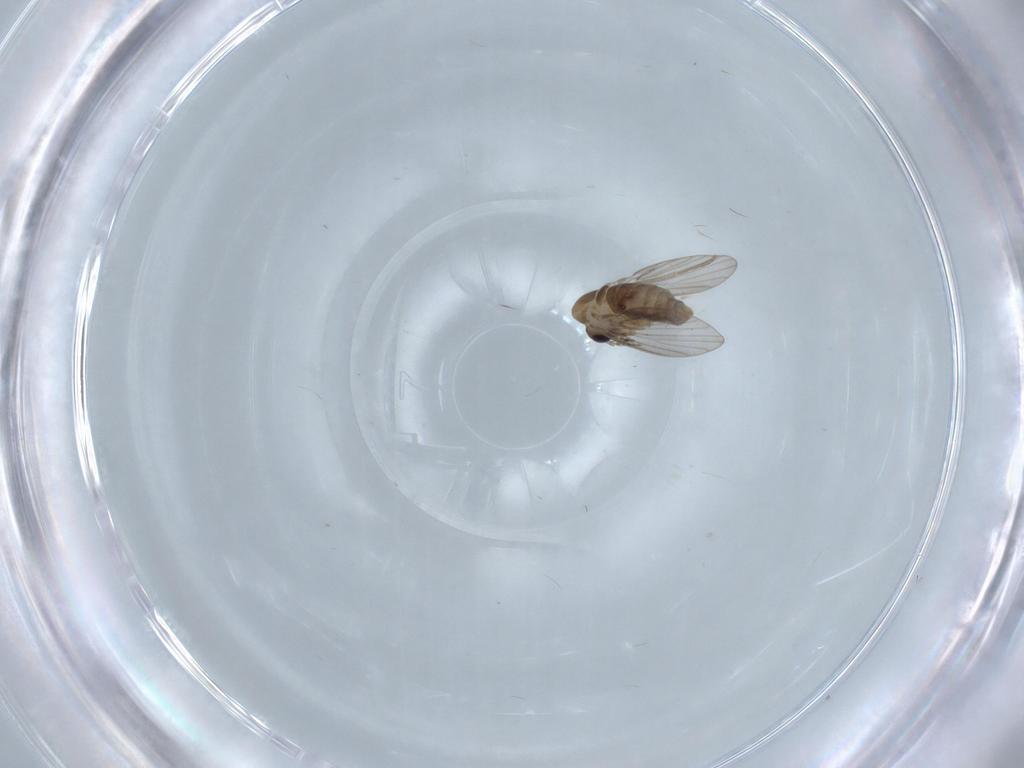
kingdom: Animalia
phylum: Arthropoda
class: Insecta
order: Diptera
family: Psychodidae
